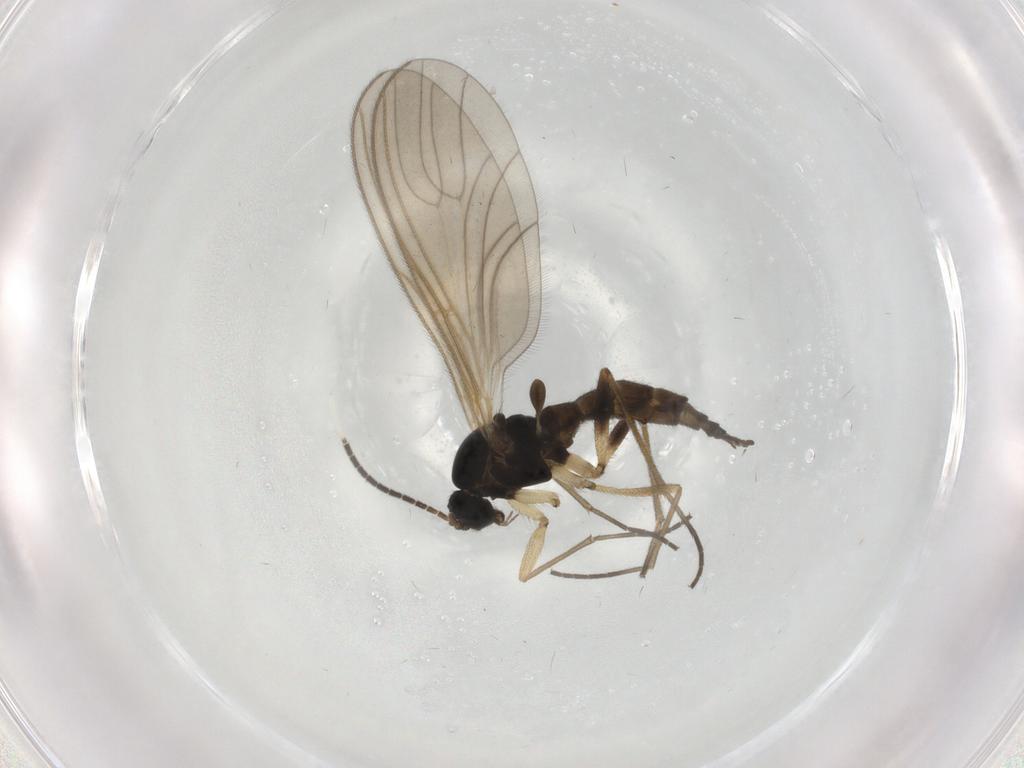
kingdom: Animalia
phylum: Arthropoda
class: Insecta
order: Diptera
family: Sciaridae
